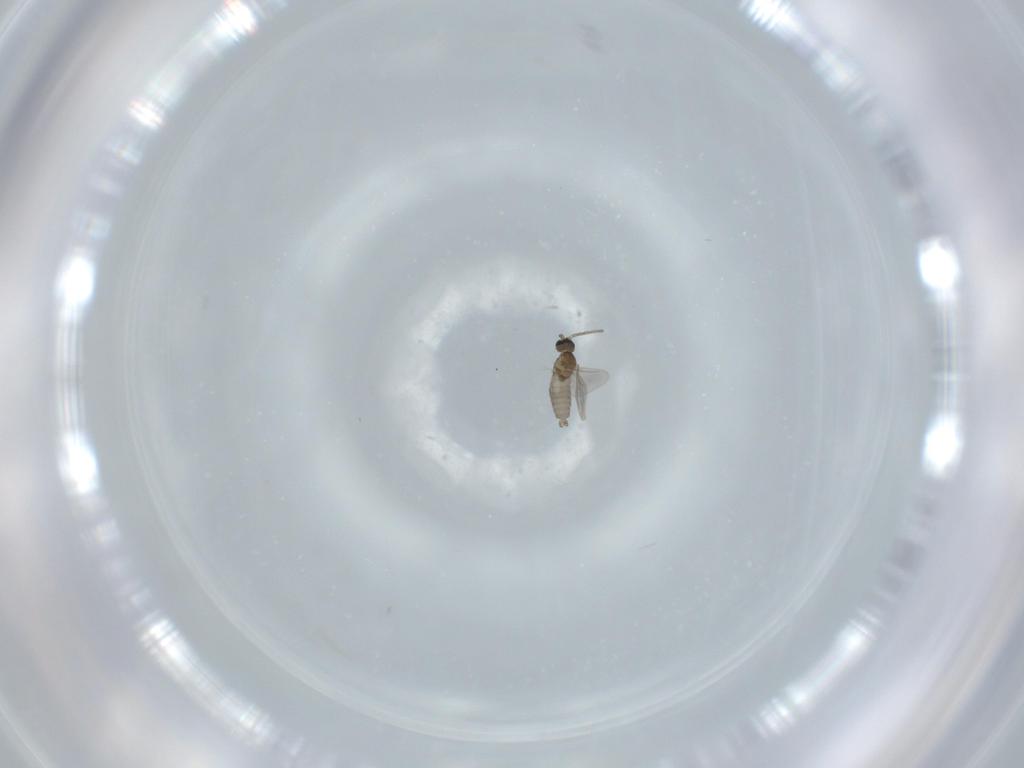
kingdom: Animalia
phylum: Arthropoda
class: Insecta
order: Diptera
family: Cecidomyiidae
